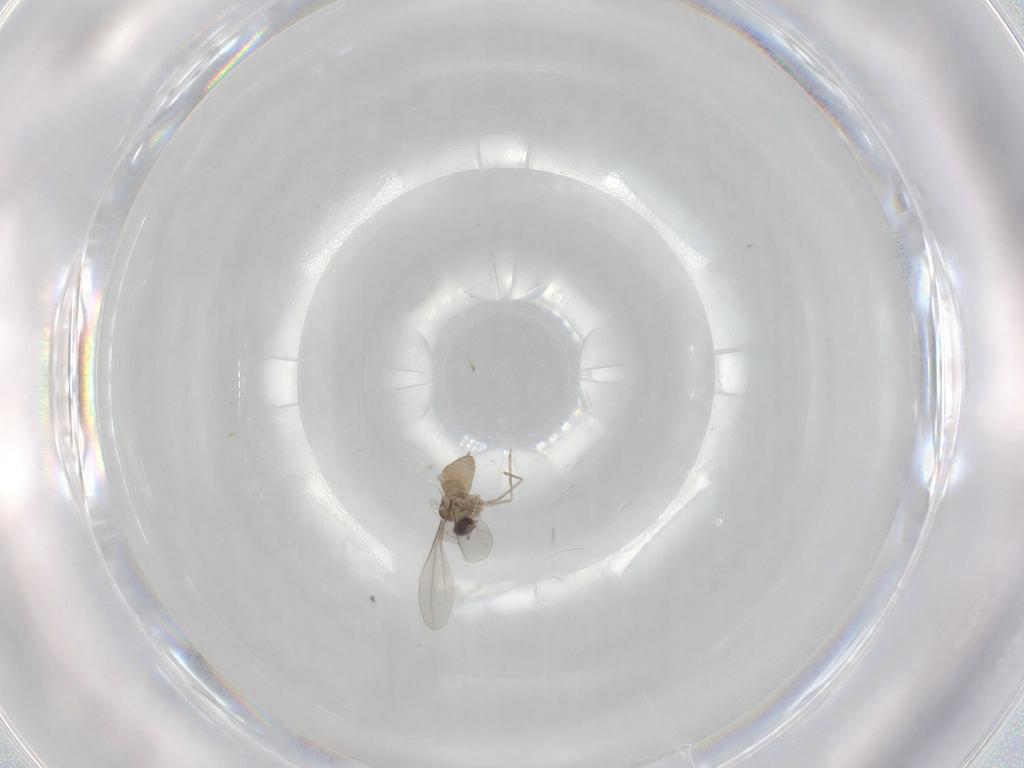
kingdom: Animalia
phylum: Arthropoda
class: Insecta
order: Diptera
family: Cecidomyiidae
